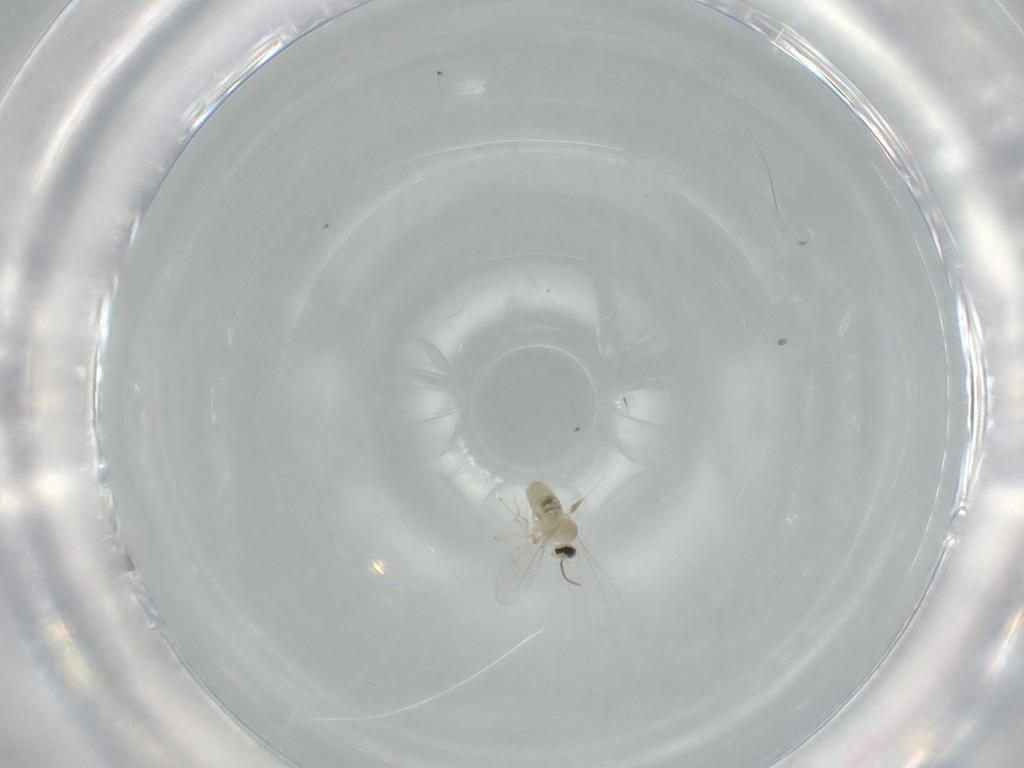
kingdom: Animalia
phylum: Arthropoda
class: Insecta
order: Diptera
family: Cecidomyiidae
